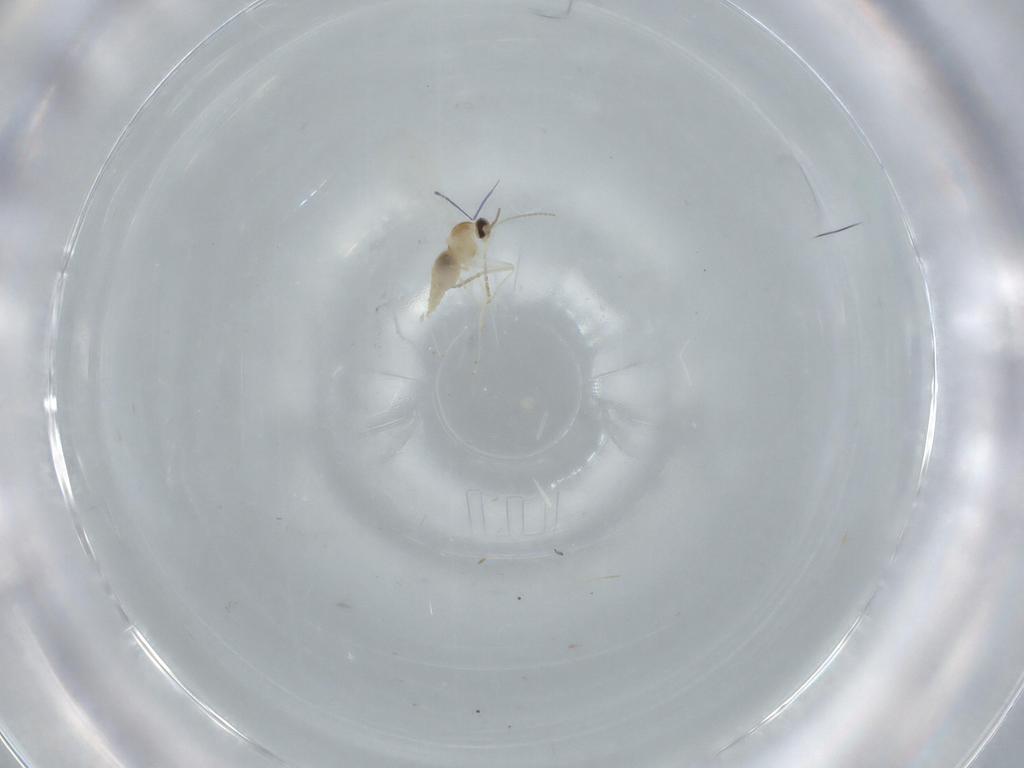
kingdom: Animalia
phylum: Arthropoda
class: Insecta
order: Diptera
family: Cecidomyiidae
